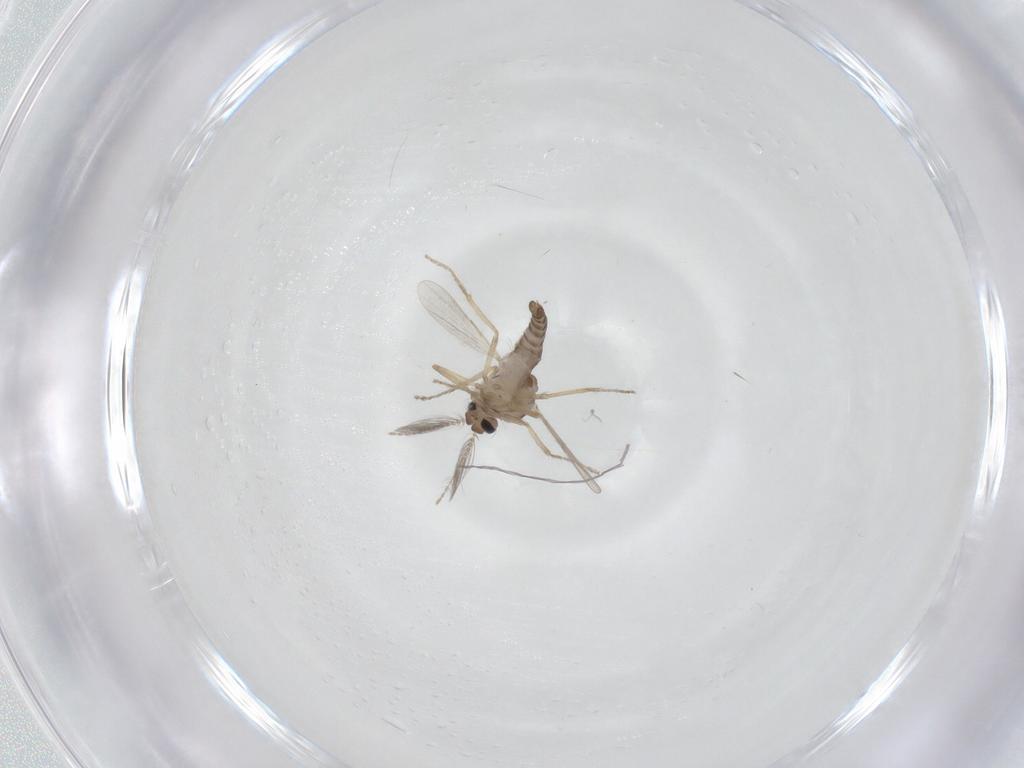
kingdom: Animalia
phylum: Arthropoda
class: Insecta
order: Diptera
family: Ceratopogonidae
